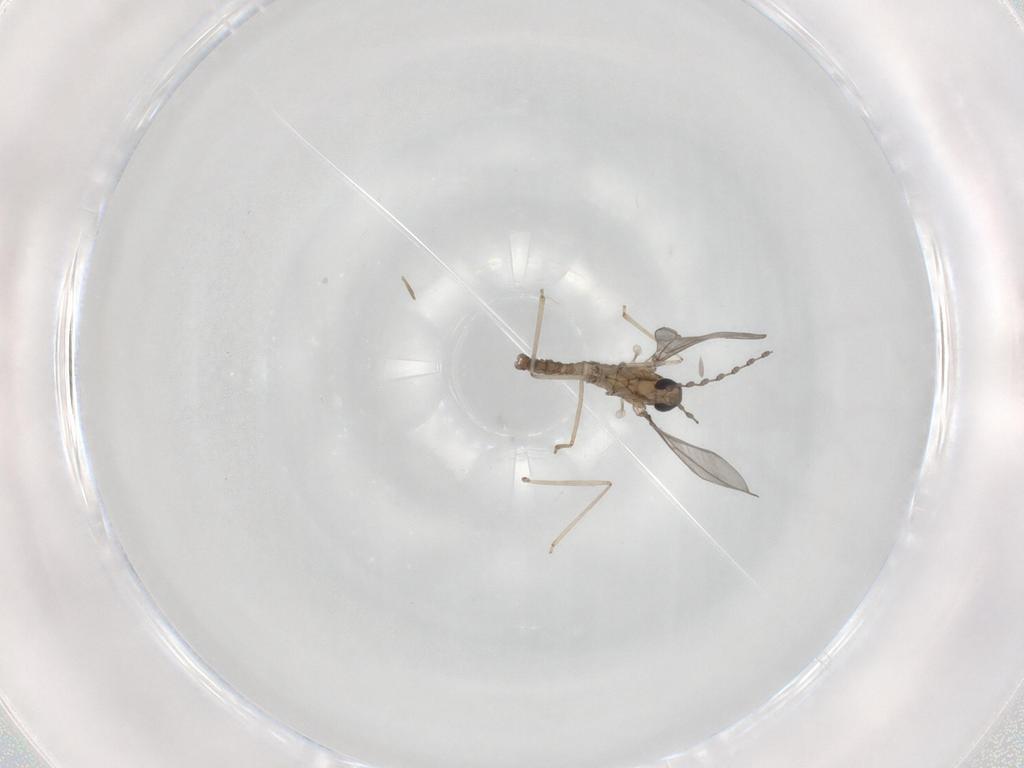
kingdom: Animalia
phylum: Arthropoda
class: Insecta
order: Diptera
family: Cecidomyiidae
